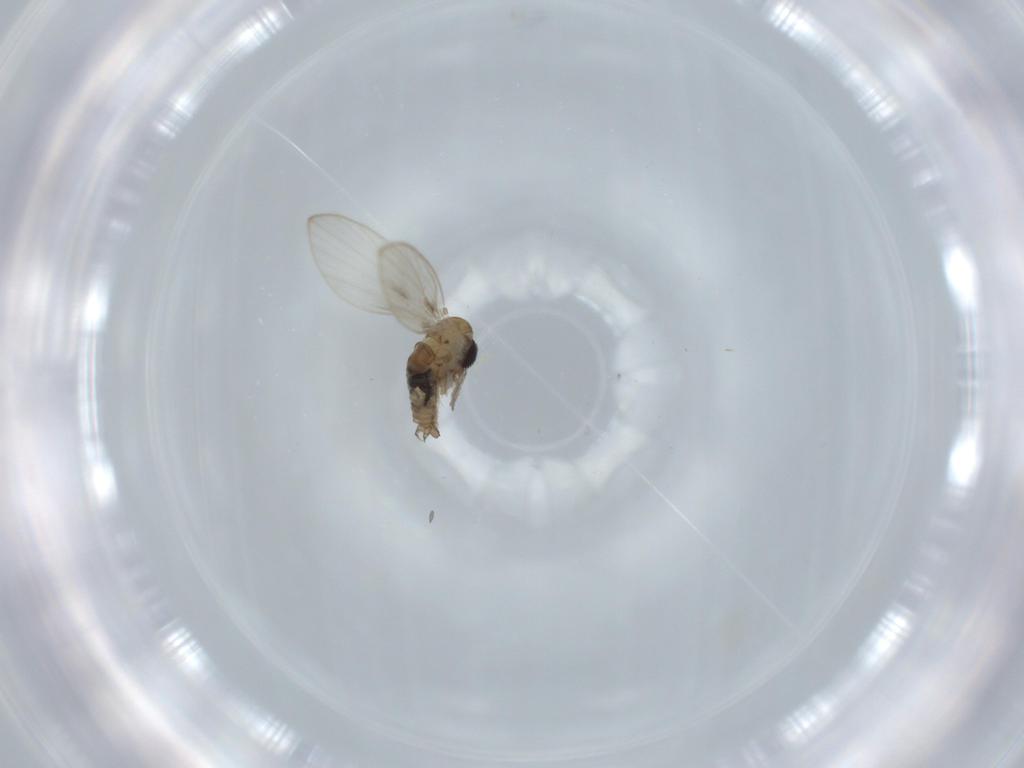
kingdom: Animalia
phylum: Arthropoda
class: Insecta
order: Diptera
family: Psychodidae
